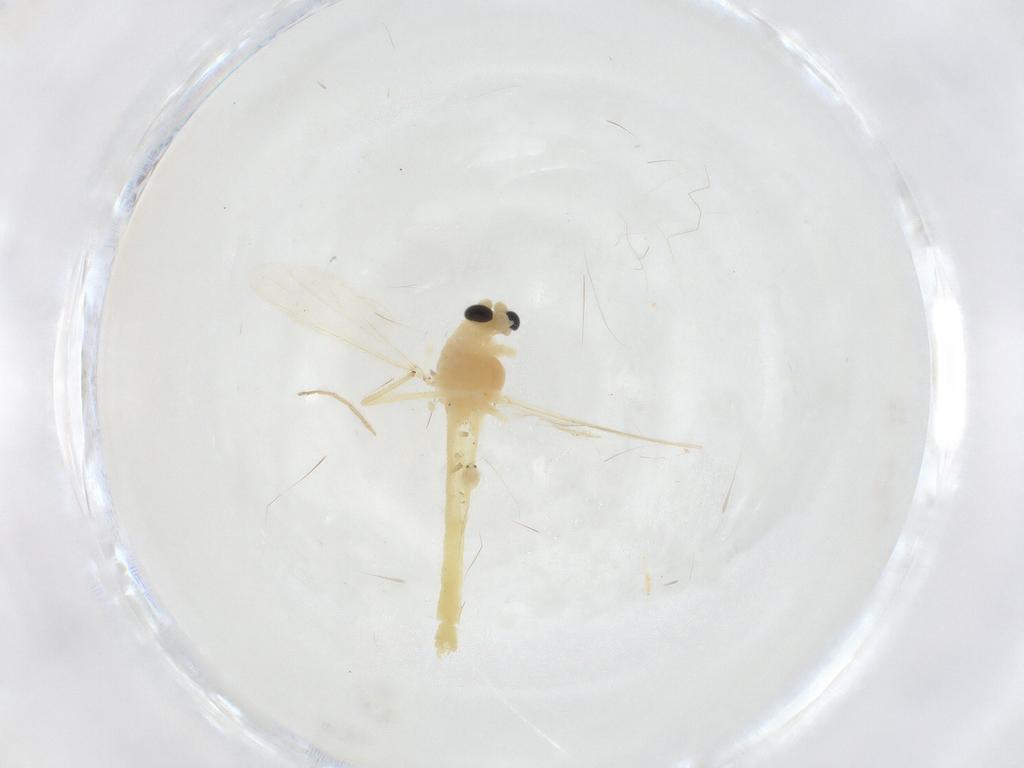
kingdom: Animalia
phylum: Arthropoda
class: Insecta
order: Diptera
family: Chironomidae
